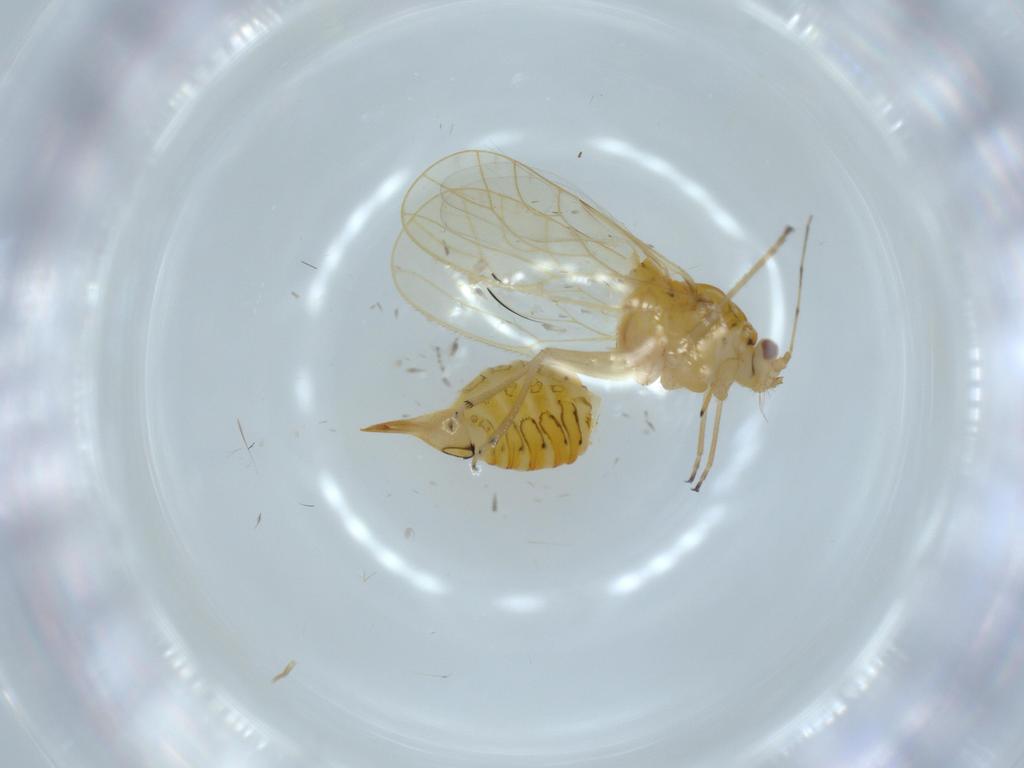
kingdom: Animalia
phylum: Arthropoda
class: Insecta
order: Hemiptera
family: Psyllidae
